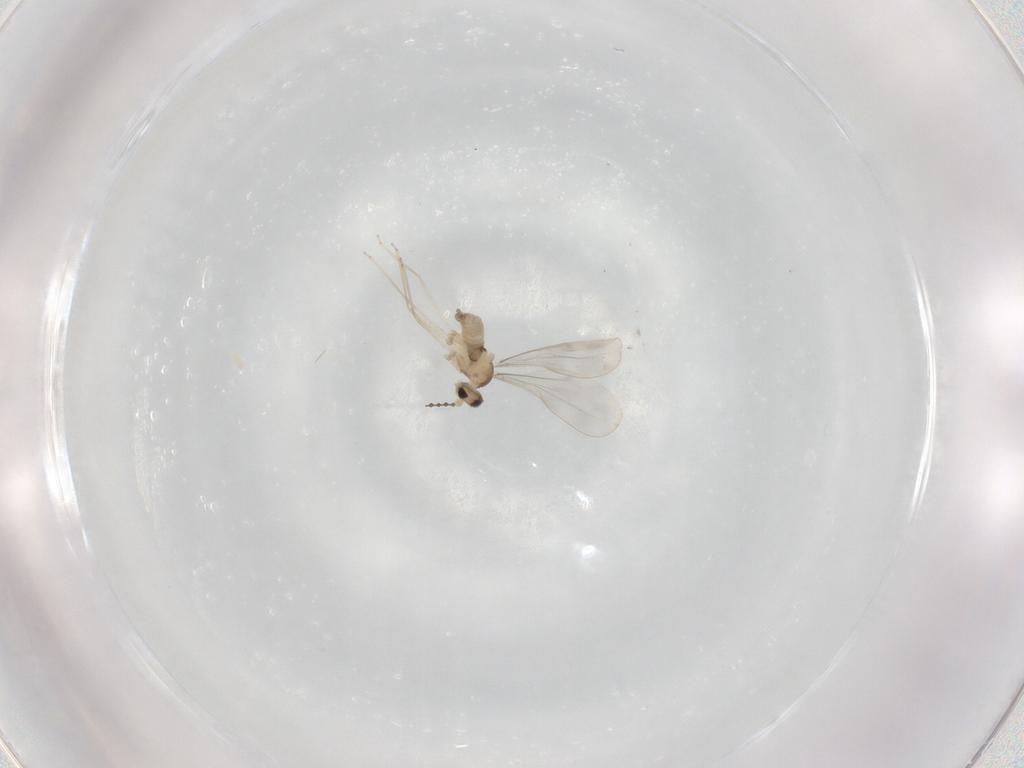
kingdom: Animalia
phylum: Arthropoda
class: Insecta
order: Diptera
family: Cecidomyiidae
